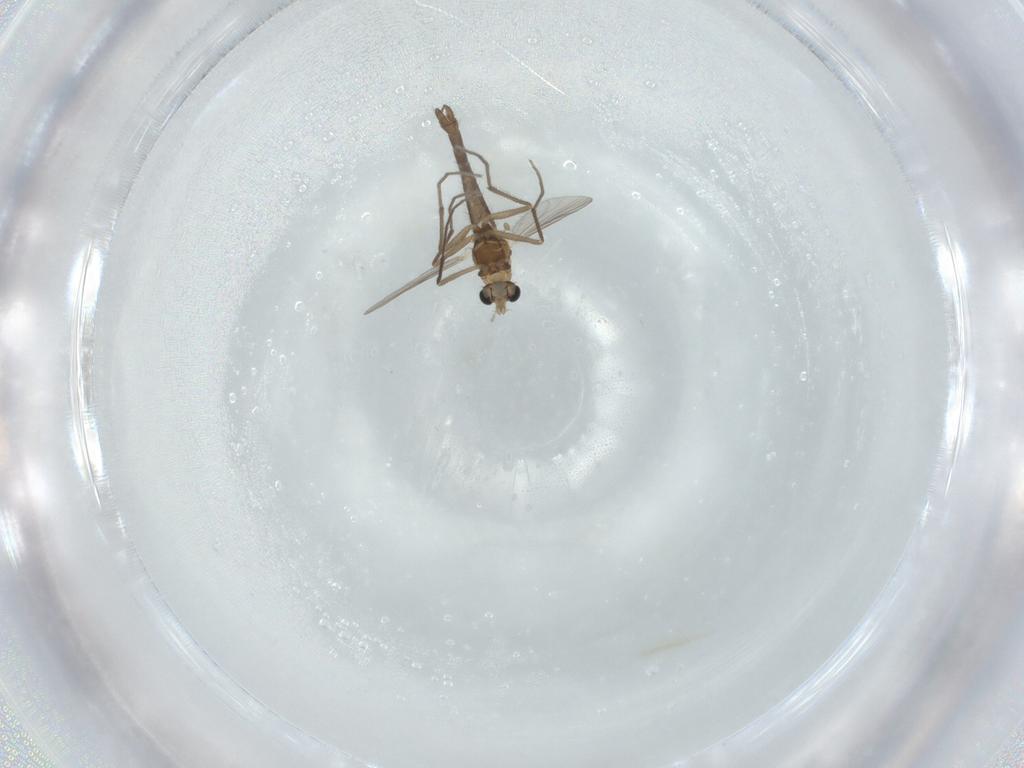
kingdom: Animalia
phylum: Arthropoda
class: Insecta
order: Diptera
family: Chironomidae
